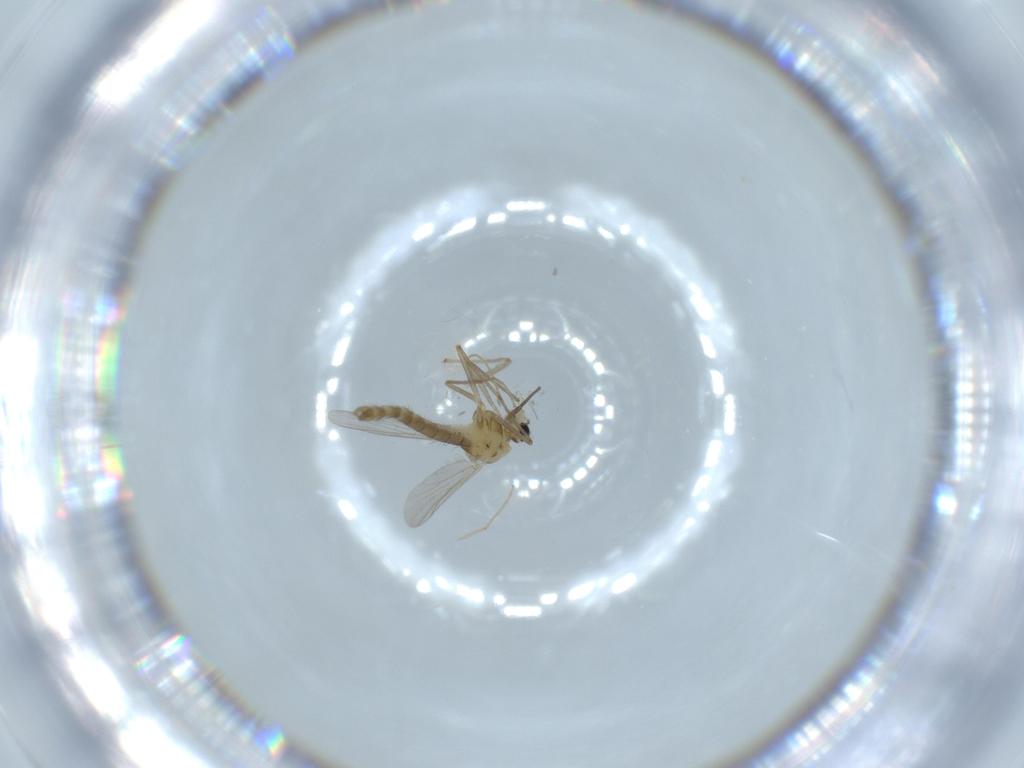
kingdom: Animalia
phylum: Arthropoda
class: Insecta
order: Diptera
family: Chironomidae
